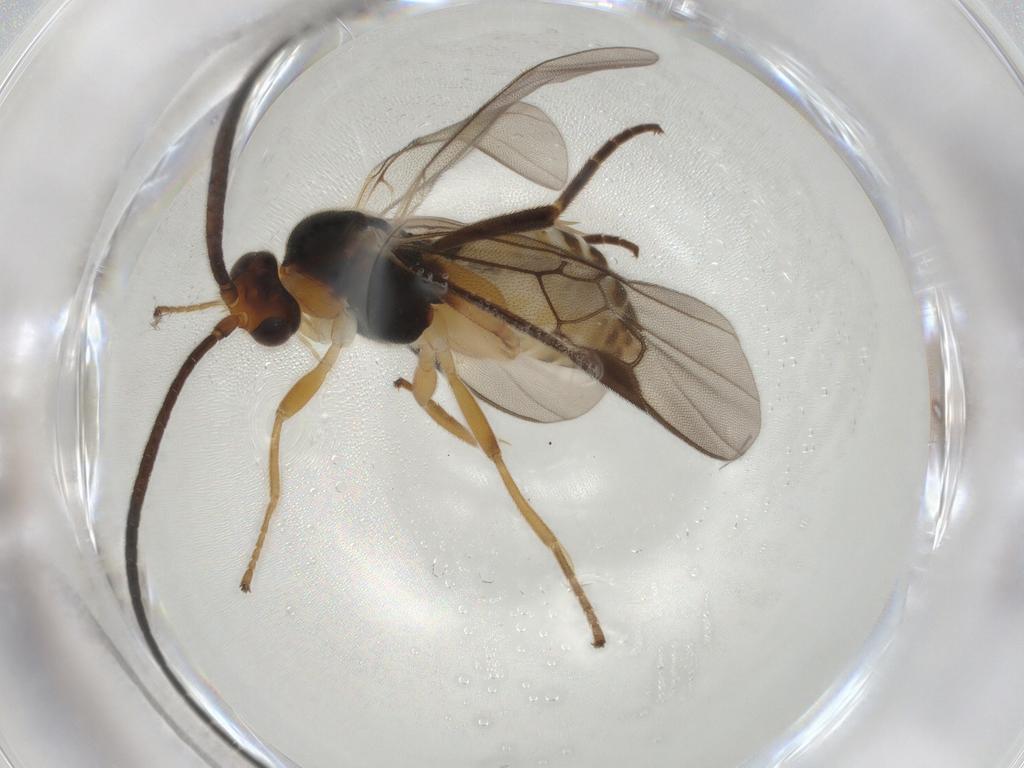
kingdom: Animalia
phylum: Arthropoda
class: Insecta
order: Hymenoptera
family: Braconidae
